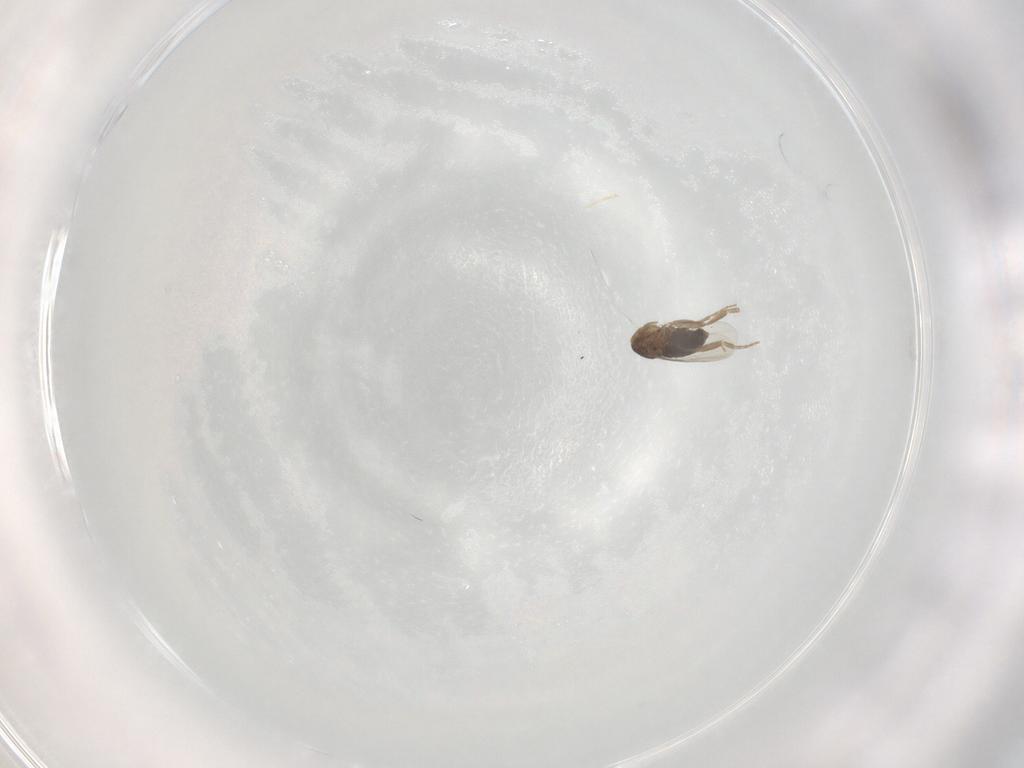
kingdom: Animalia
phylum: Arthropoda
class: Insecta
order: Diptera
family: Phoridae
